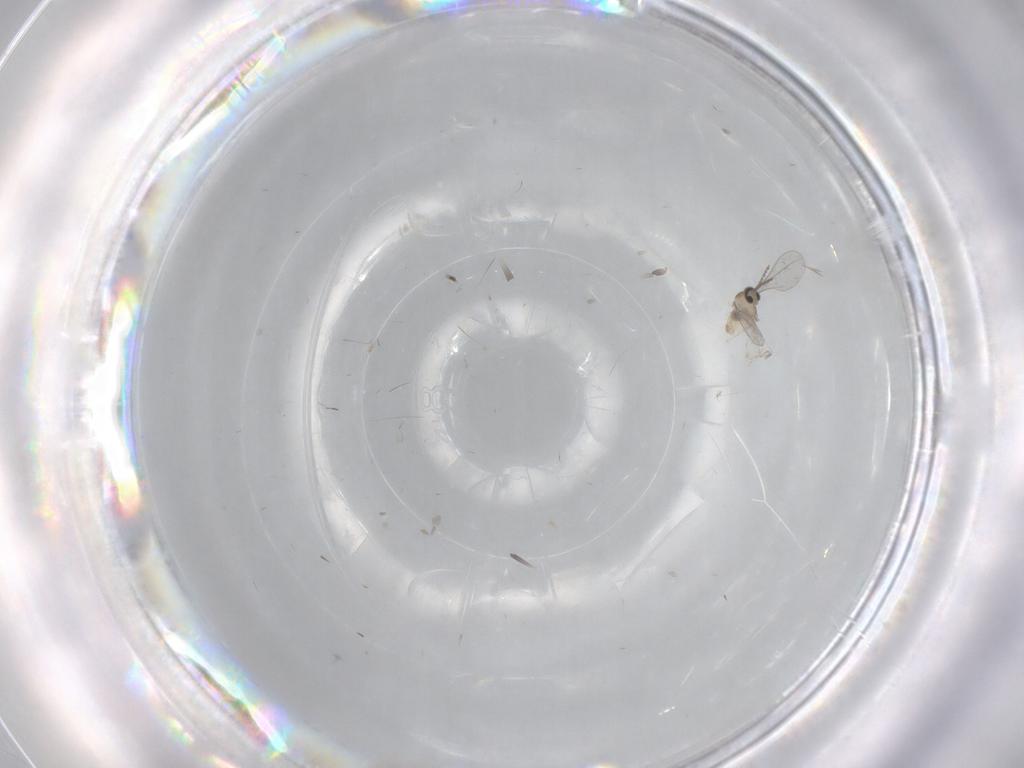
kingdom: Animalia
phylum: Arthropoda
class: Insecta
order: Diptera
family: Cecidomyiidae
